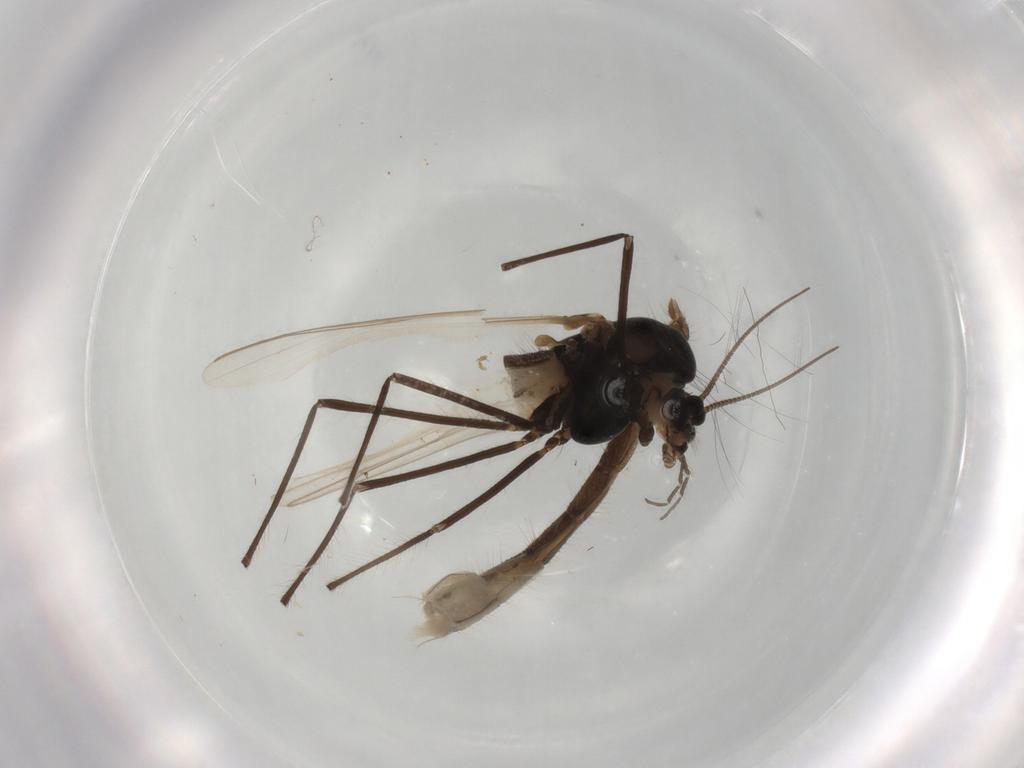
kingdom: Animalia
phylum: Arthropoda
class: Insecta
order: Diptera
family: Chironomidae
